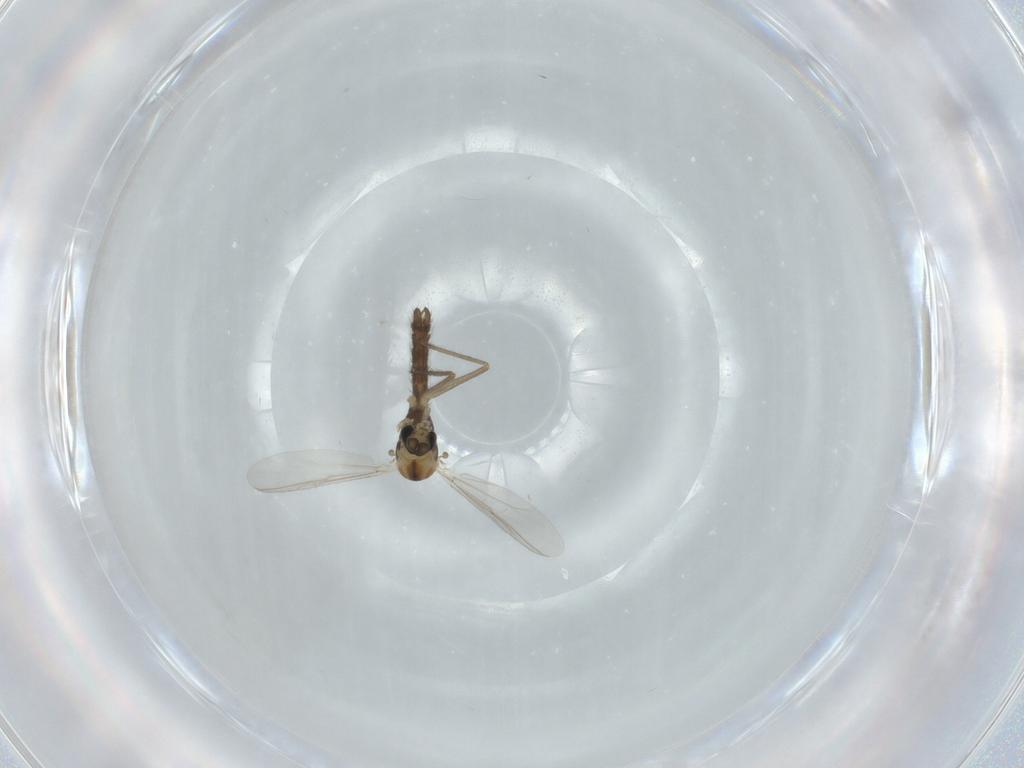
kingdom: Animalia
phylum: Arthropoda
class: Insecta
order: Diptera
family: Chironomidae
